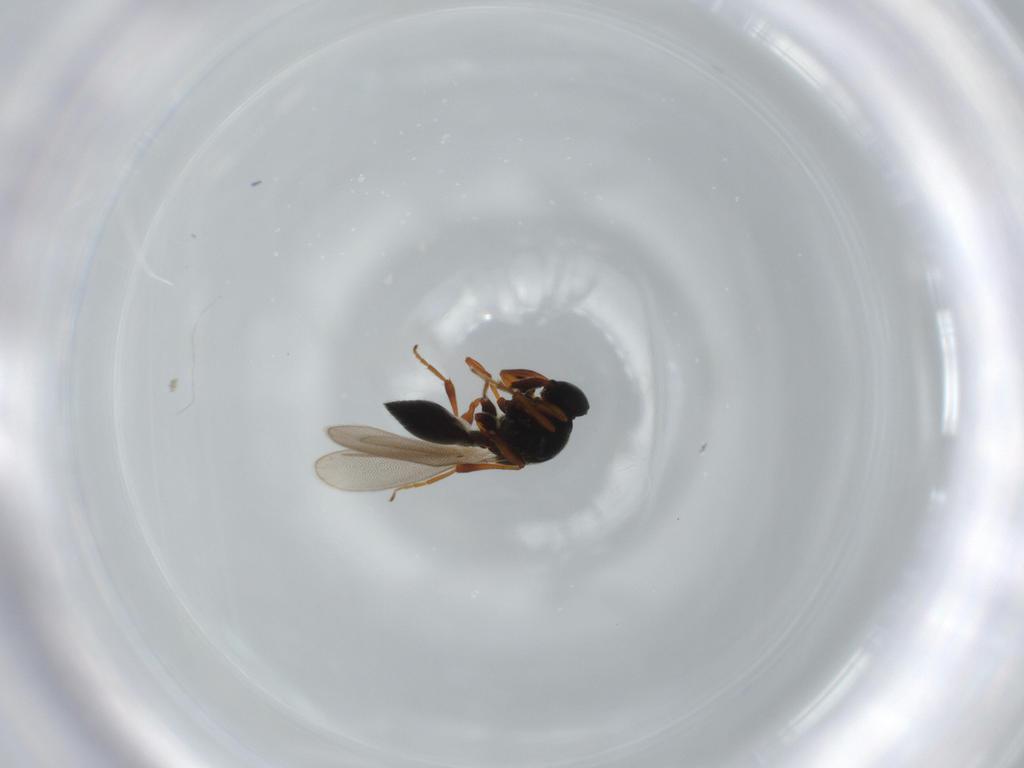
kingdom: Animalia
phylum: Arthropoda
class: Insecta
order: Hymenoptera
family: Platygastridae
